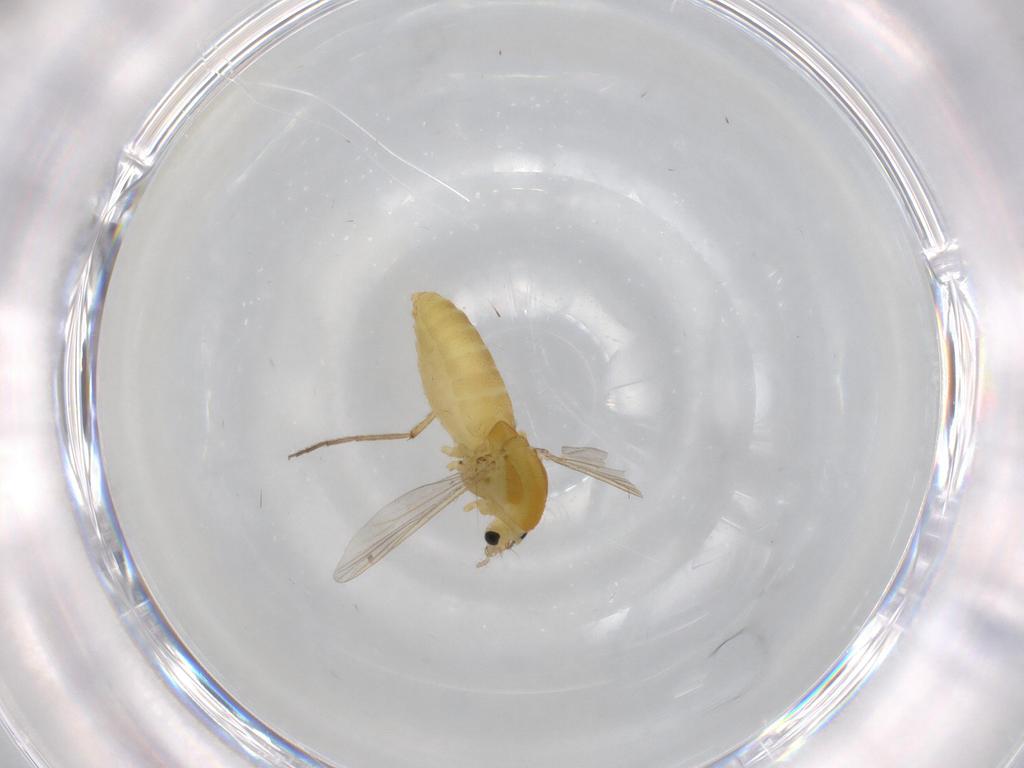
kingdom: Animalia
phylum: Arthropoda
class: Insecta
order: Diptera
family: Chironomidae
